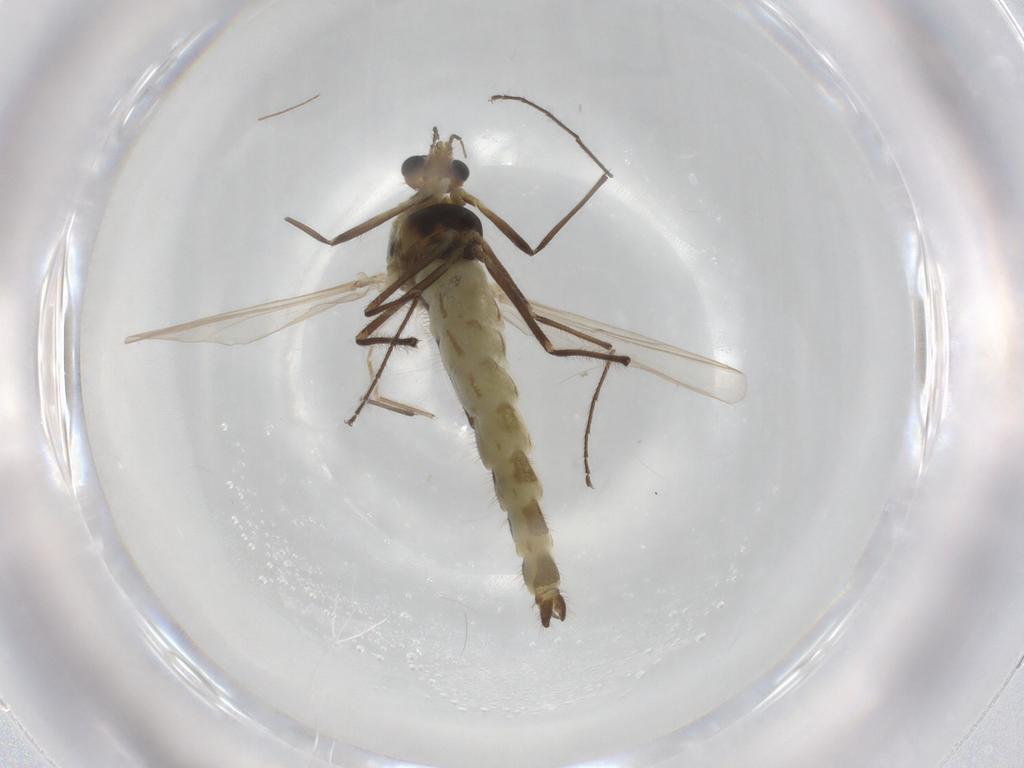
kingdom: Animalia
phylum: Arthropoda
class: Insecta
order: Diptera
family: Chironomidae
